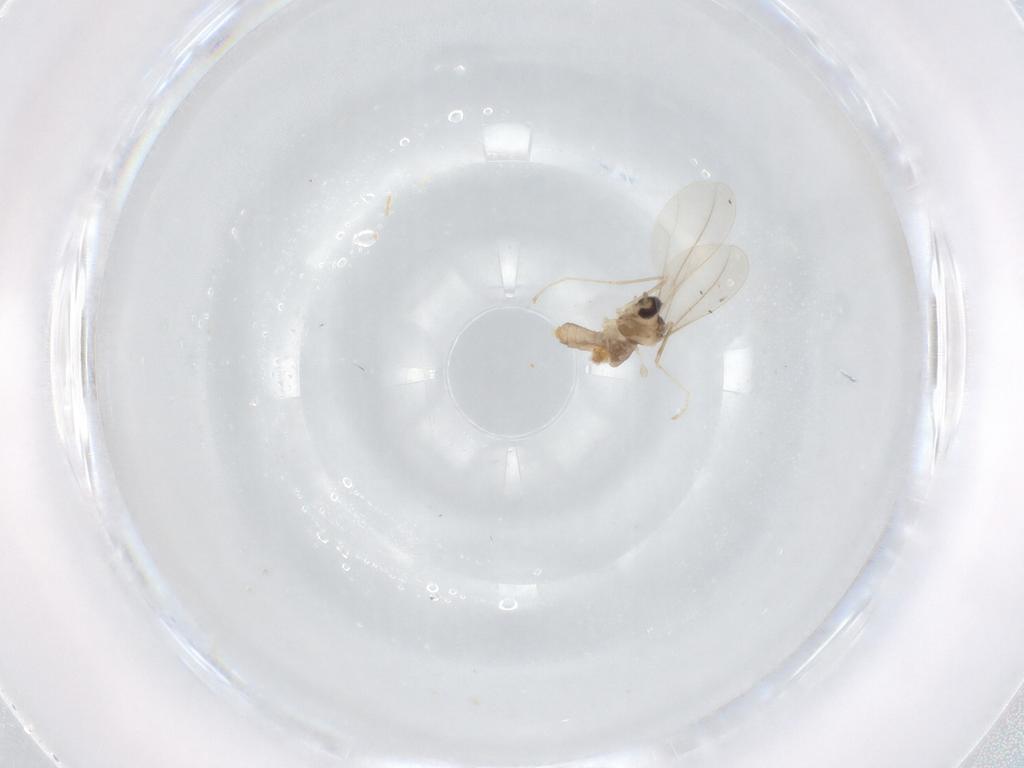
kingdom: Animalia
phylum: Arthropoda
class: Insecta
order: Diptera
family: Cecidomyiidae
